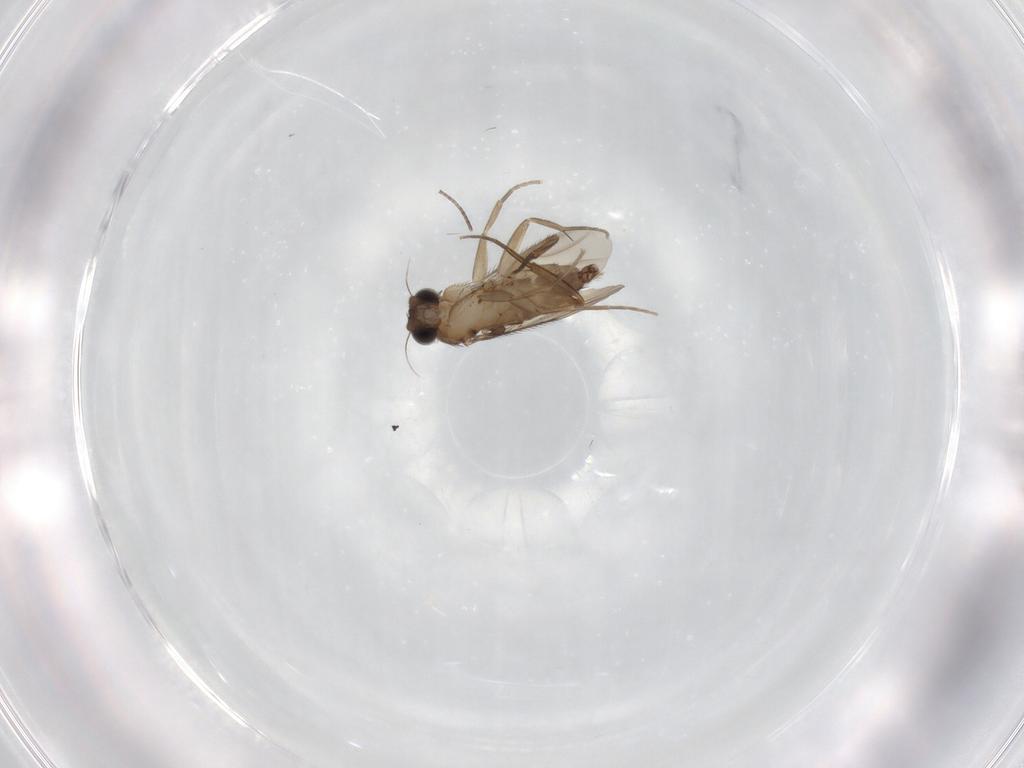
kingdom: Animalia
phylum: Arthropoda
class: Insecta
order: Diptera
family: Phoridae
